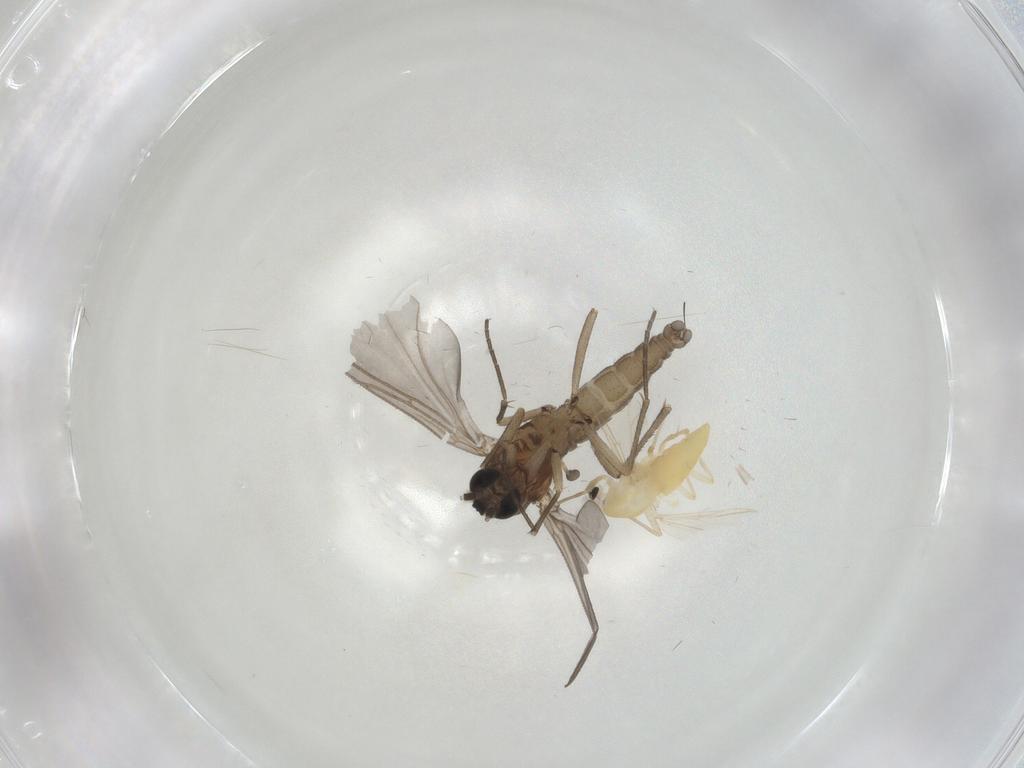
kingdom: Animalia
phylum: Arthropoda
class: Insecta
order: Diptera
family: Chironomidae
